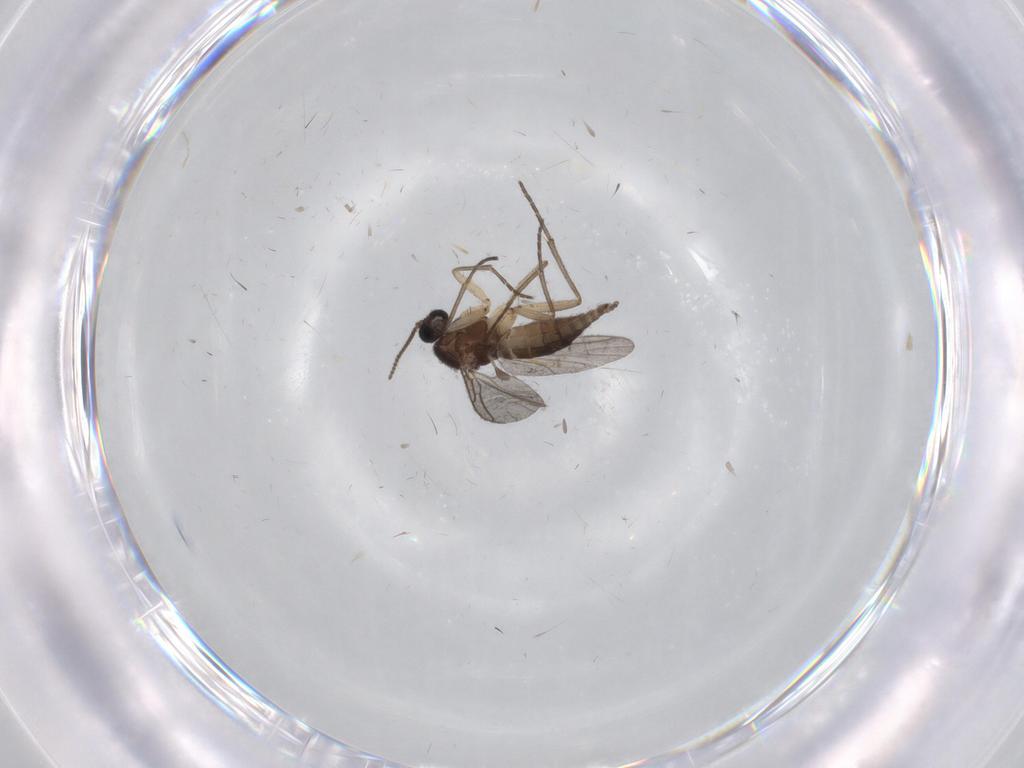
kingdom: Animalia
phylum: Arthropoda
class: Insecta
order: Diptera
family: Sciaridae
